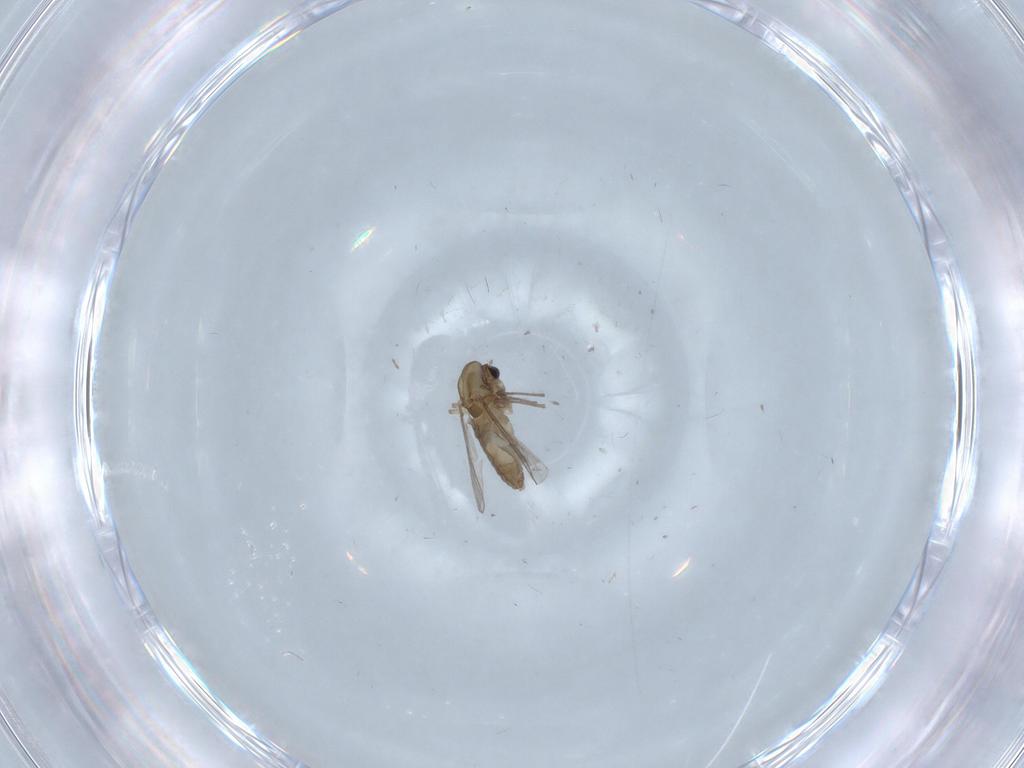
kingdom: Animalia
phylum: Arthropoda
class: Insecta
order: Diptera
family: Chironomidae
